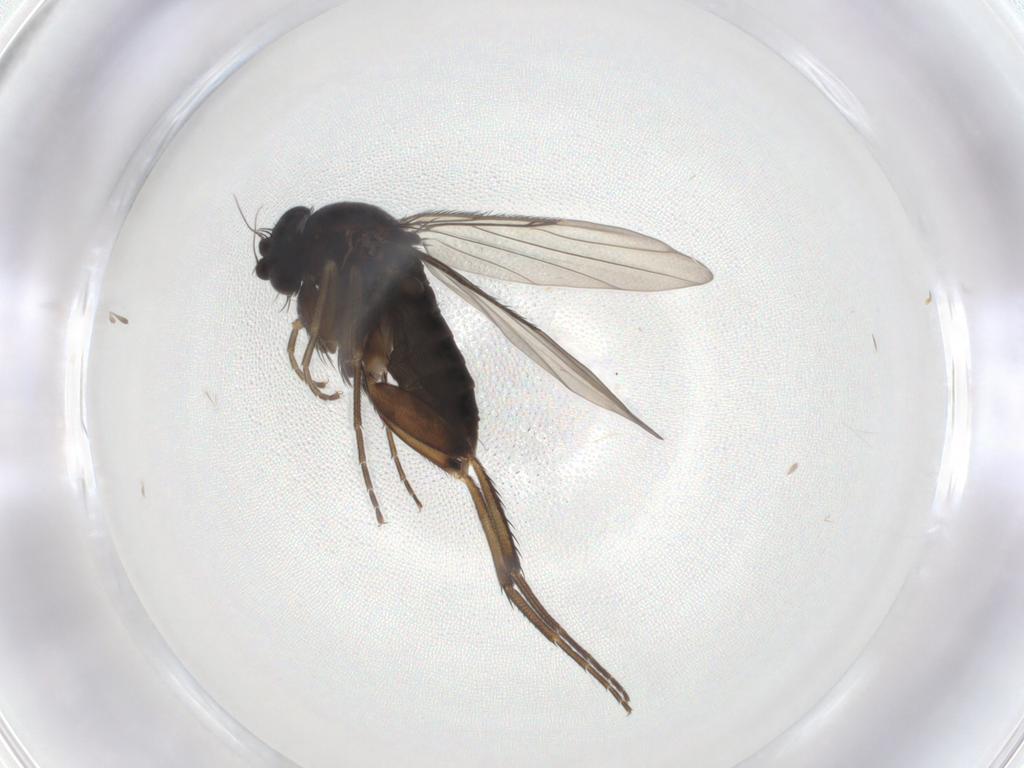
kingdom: Animalia
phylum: Arthropoda
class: Insecta
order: Diptera
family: Phoridae
